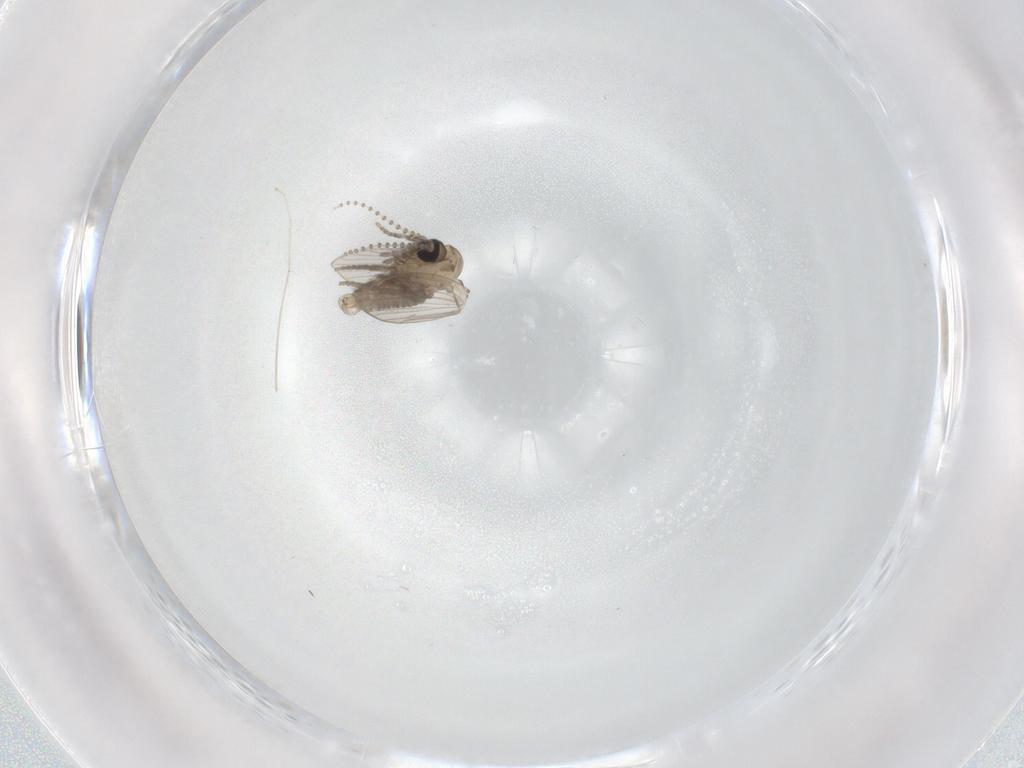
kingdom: Animalia
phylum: Arthropoda
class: Insecta
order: Diptera
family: Psychodidae
